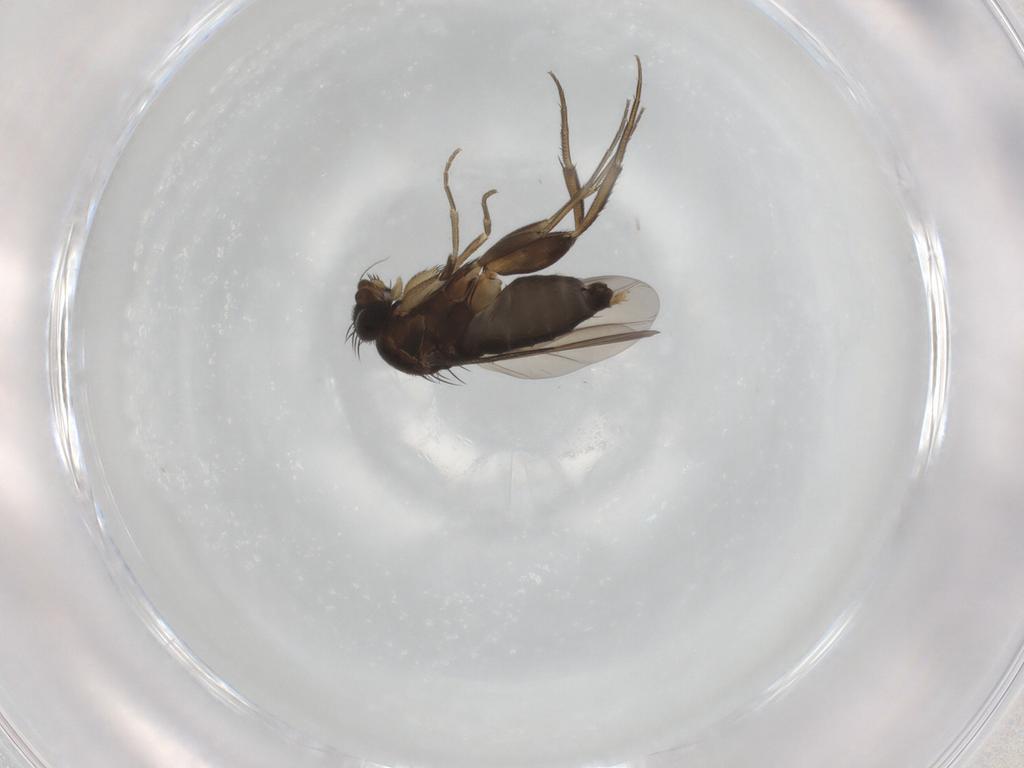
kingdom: Animalia
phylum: Arthropoda
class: Insecta
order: Diptera
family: Phoridae
